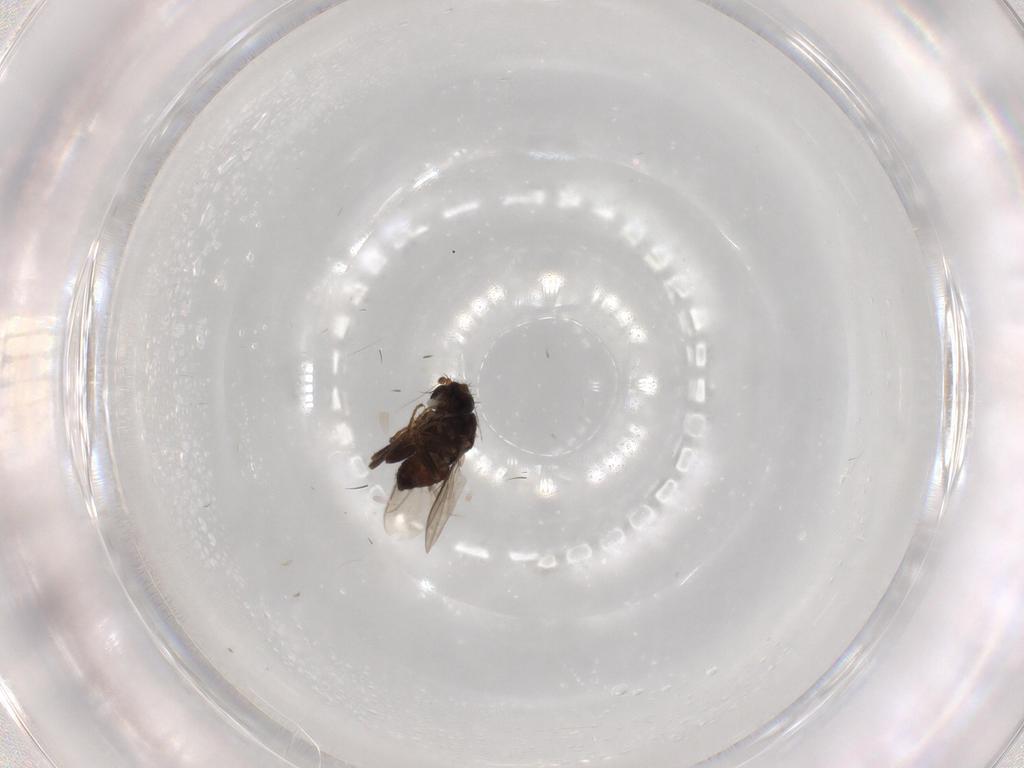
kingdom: Animalia
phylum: Arthropoda
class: Insecta
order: Diptera
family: Sphaeroceridae
